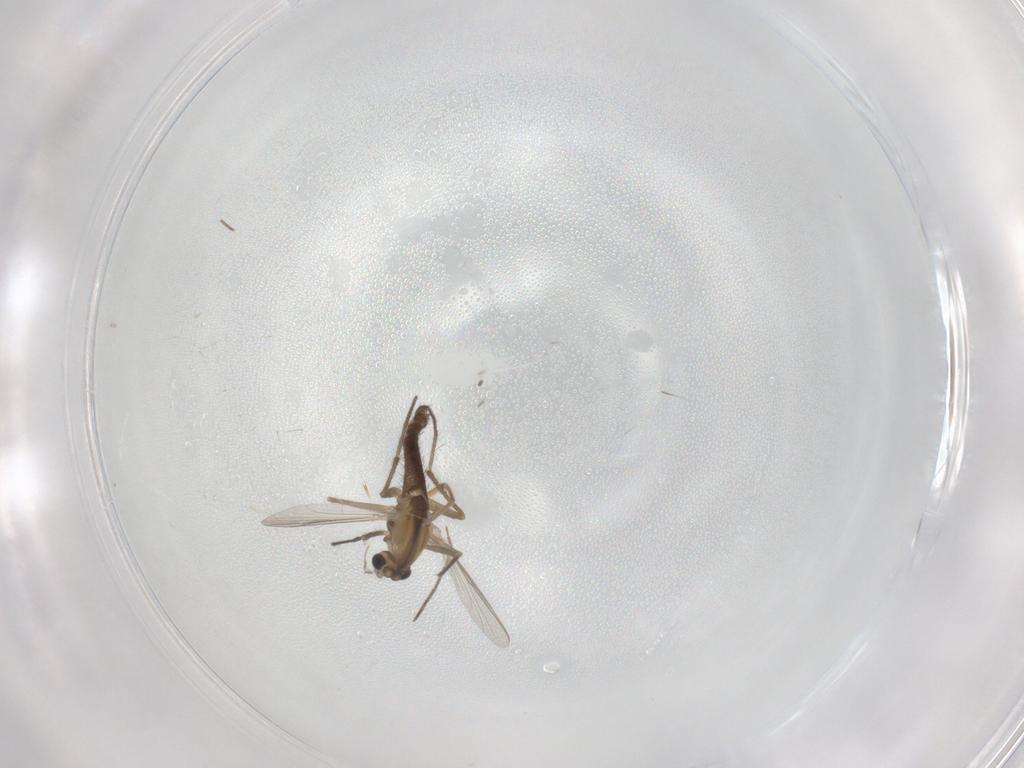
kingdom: Animalia
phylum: Arthropoda
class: Insecta
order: Diptera
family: Chironomidae
